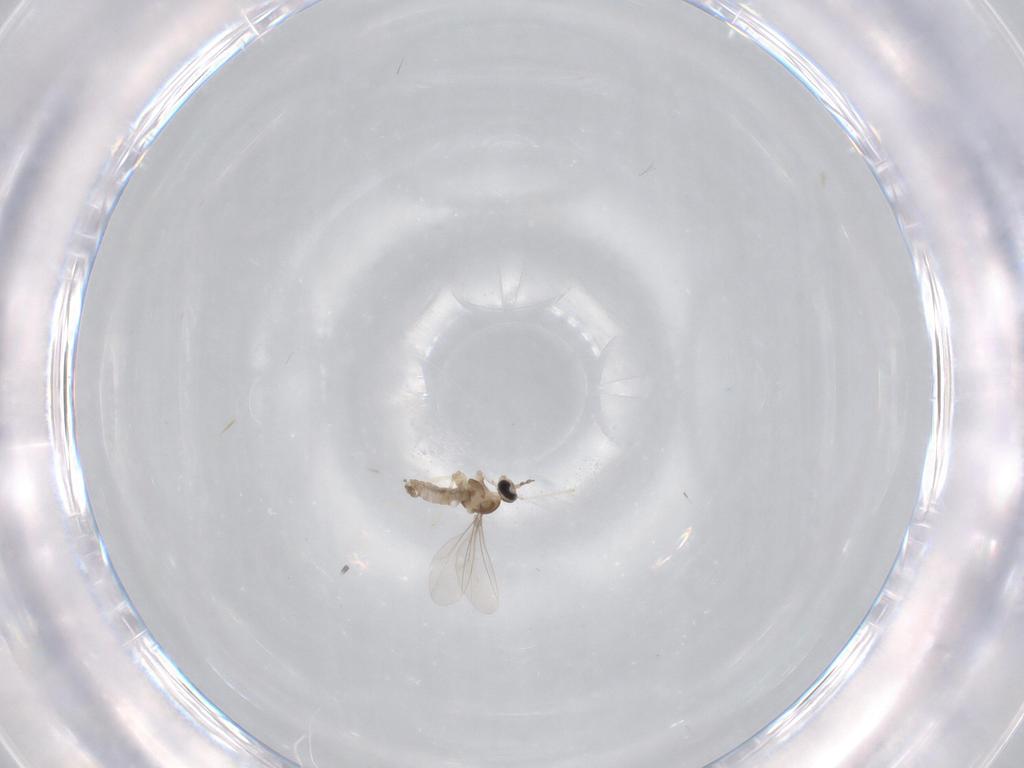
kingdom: Animalia
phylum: Arthropoda
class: Insecta
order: Diptera
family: Cecidomyiidae
